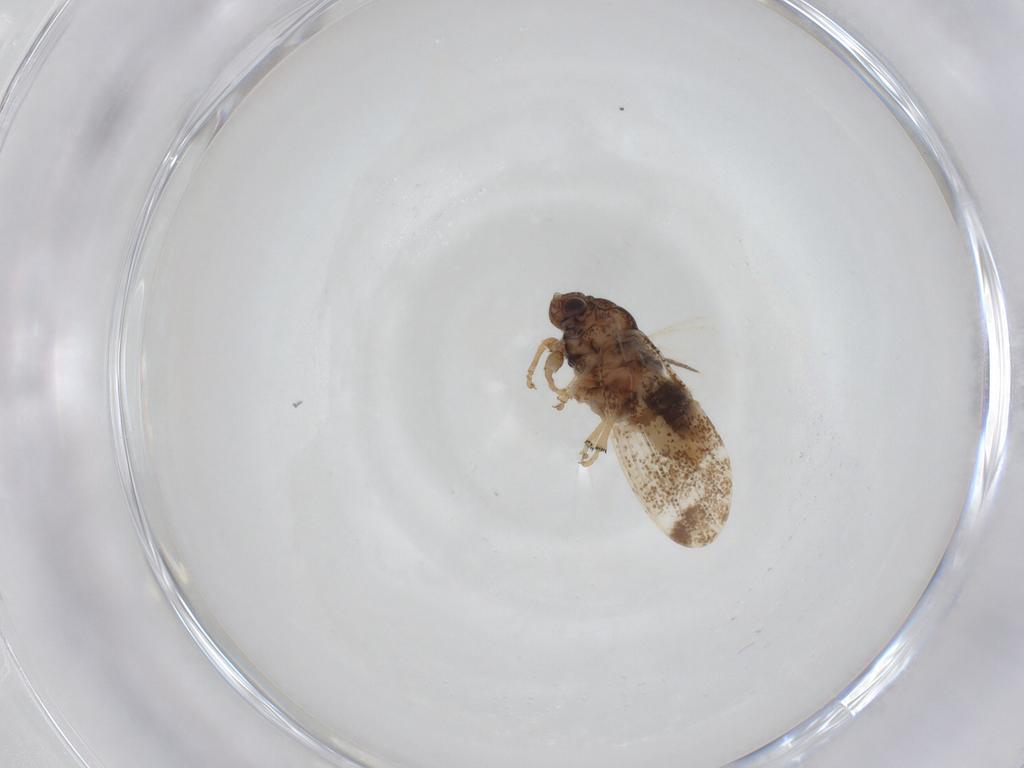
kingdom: Animalia
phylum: Arthropoda
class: Insecta
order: Hemiptera
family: Liviidae
